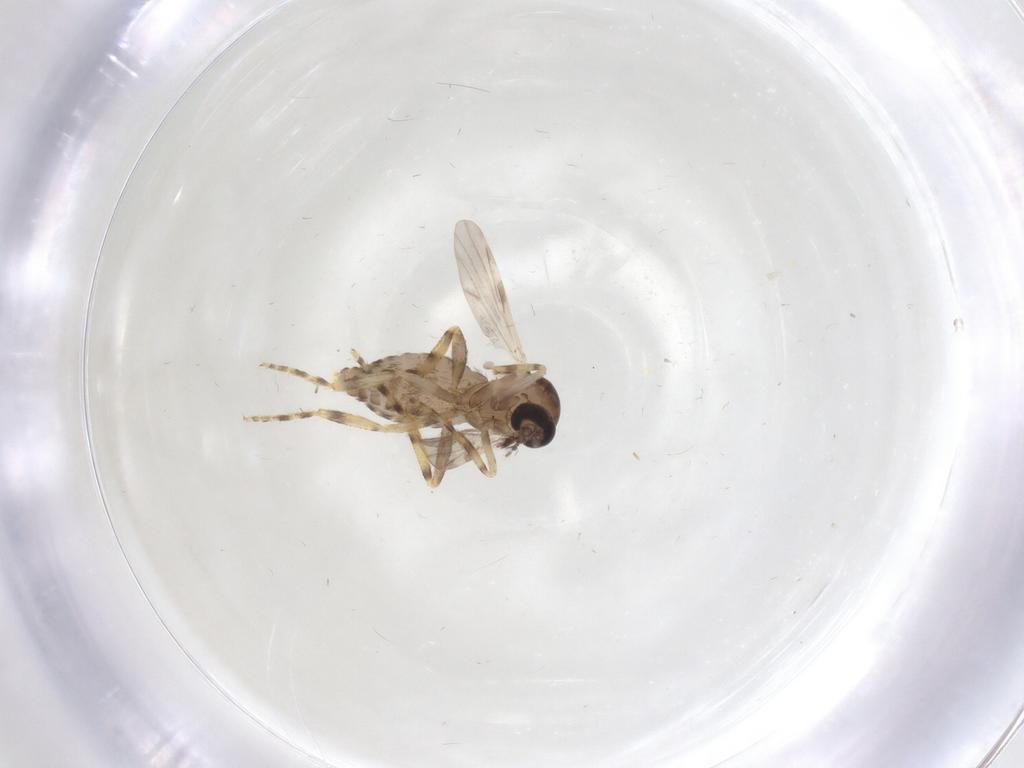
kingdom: Animalia
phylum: Arthropoda
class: Insecta
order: Diptera
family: Ceratopogonidae
